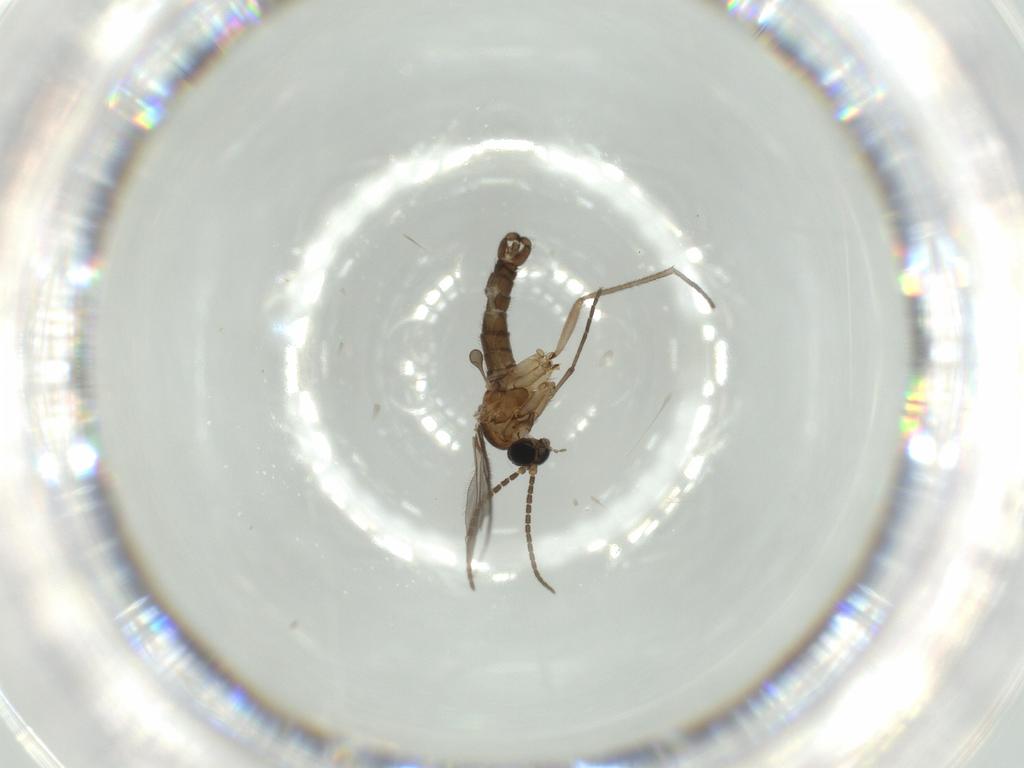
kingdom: Animalia
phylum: Arthropoda
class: Insecta
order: Diptera
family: Sciaridae
